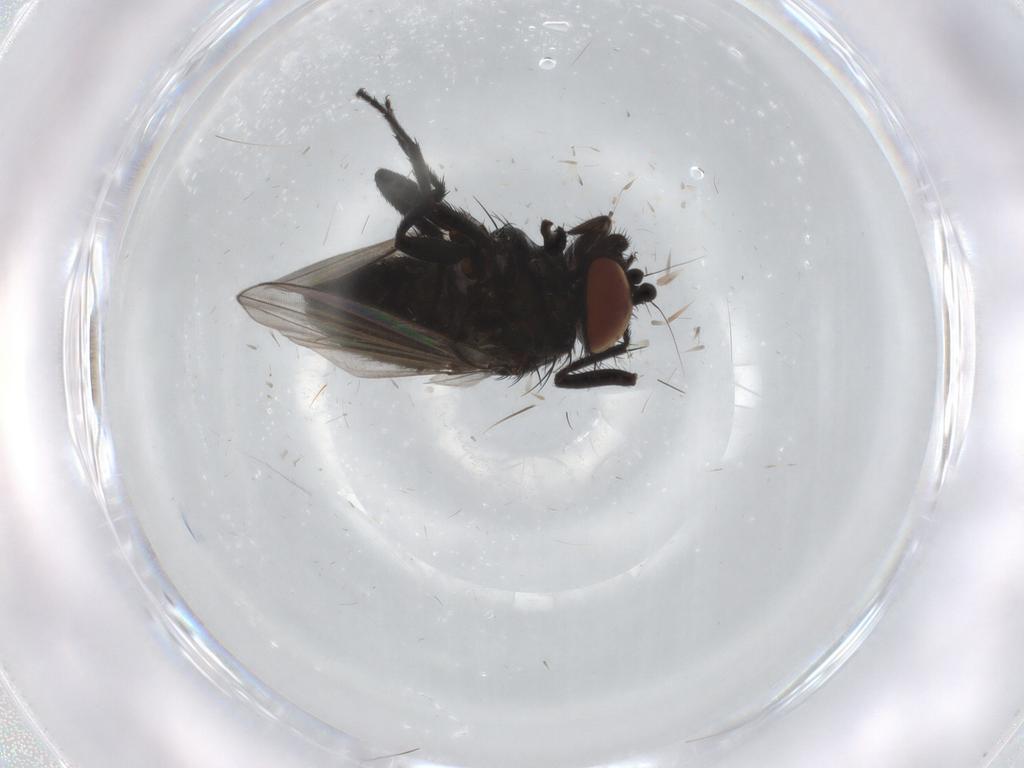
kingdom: Animalia
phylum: Arthropoda
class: Insecta
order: Diptera
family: Milichiidae
